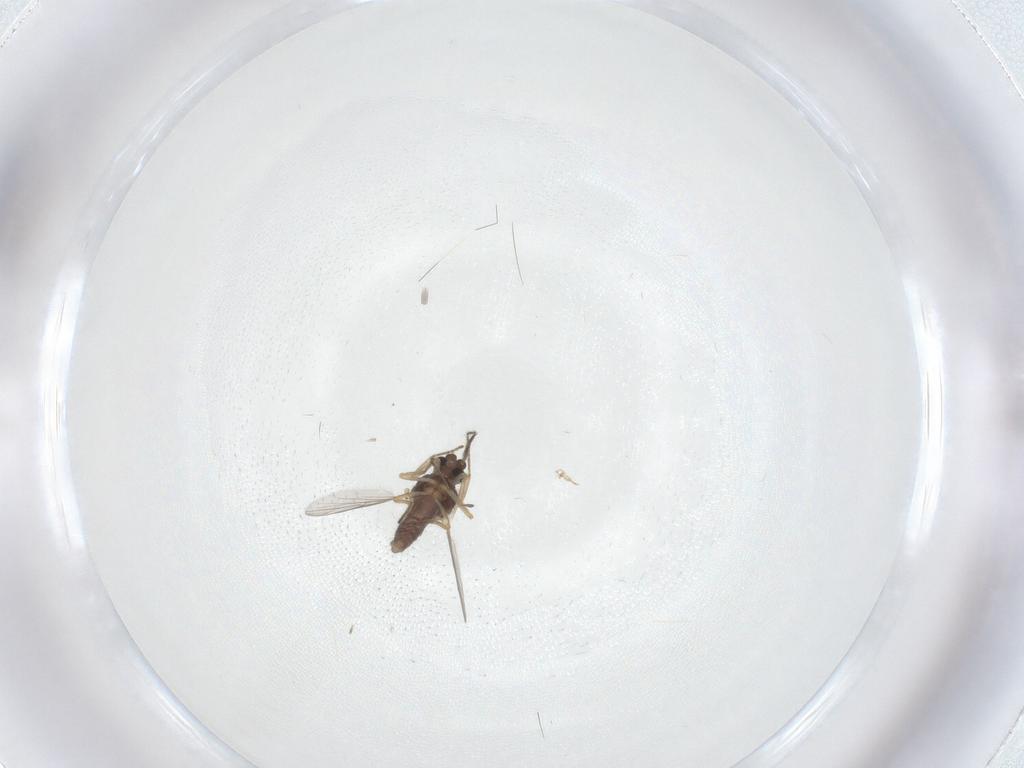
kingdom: Animalia
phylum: Arthropoda
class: Insecta
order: Diptera
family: Ceratopogonidae
